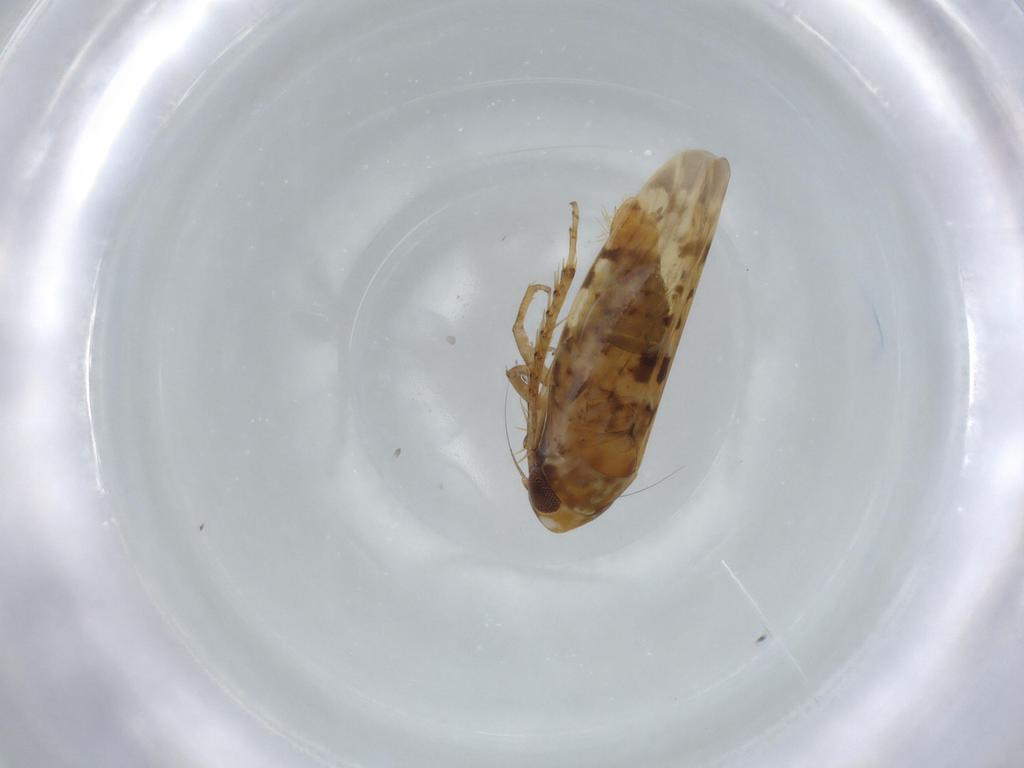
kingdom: Animalia
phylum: Arthropoda
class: Insecta
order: Hemiptera
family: Cicadellidae
